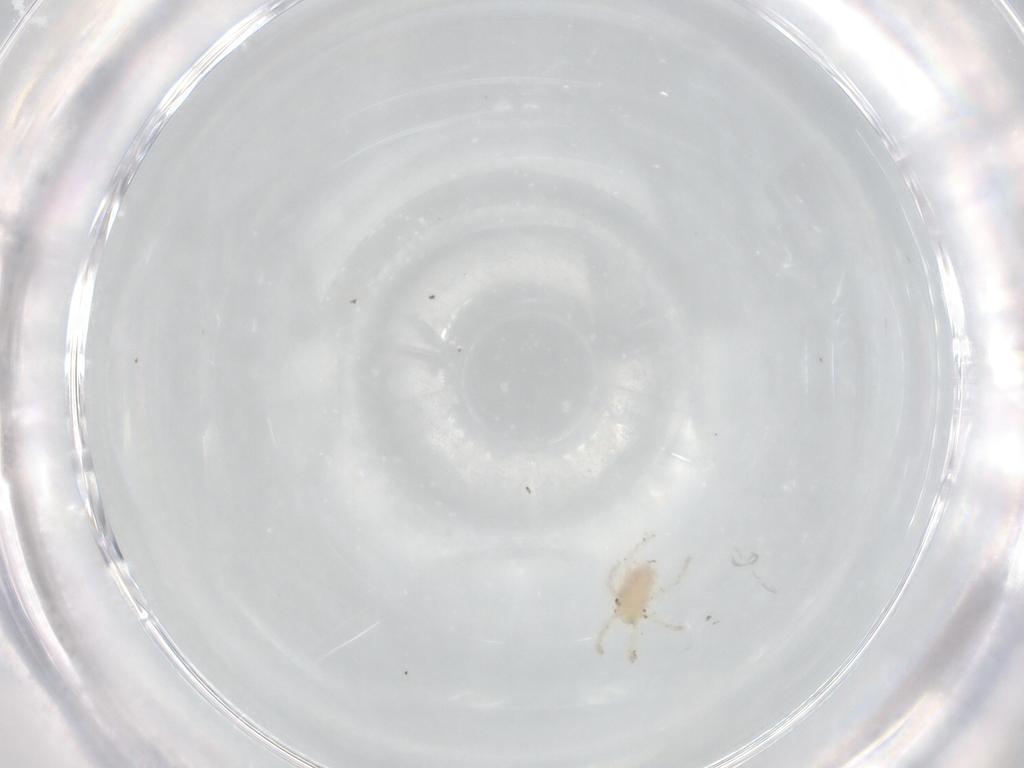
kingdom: Animalia
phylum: Arthropoda
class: Arachnida
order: Trombidiformes
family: Trombidiidae
